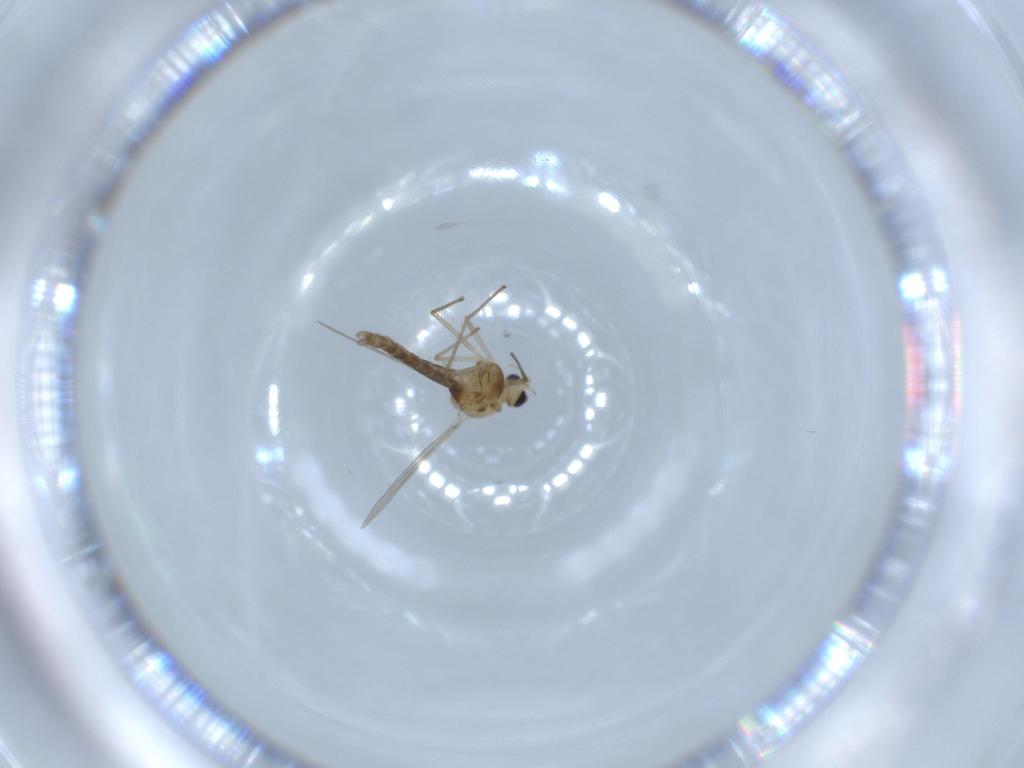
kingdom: Animalia
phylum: Arthropoda
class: Insecta
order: Diptera
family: Chironomidae
